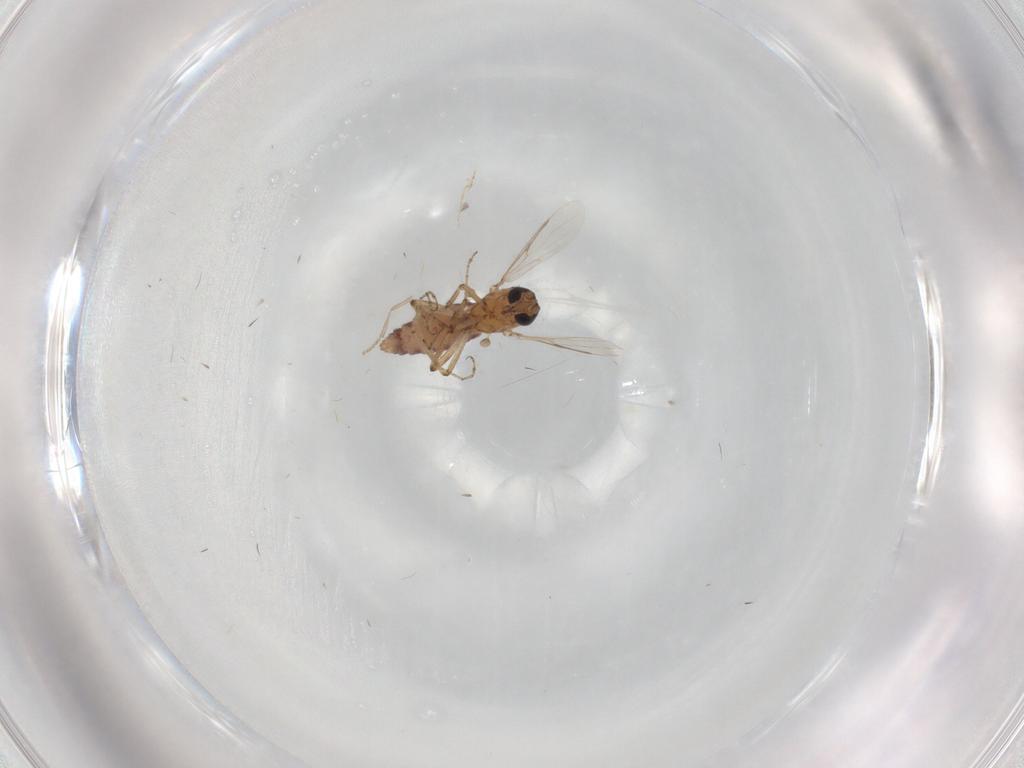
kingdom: Animalia
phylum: Arthropoda
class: Insecta
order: Diptera
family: Ceratopogonidae
